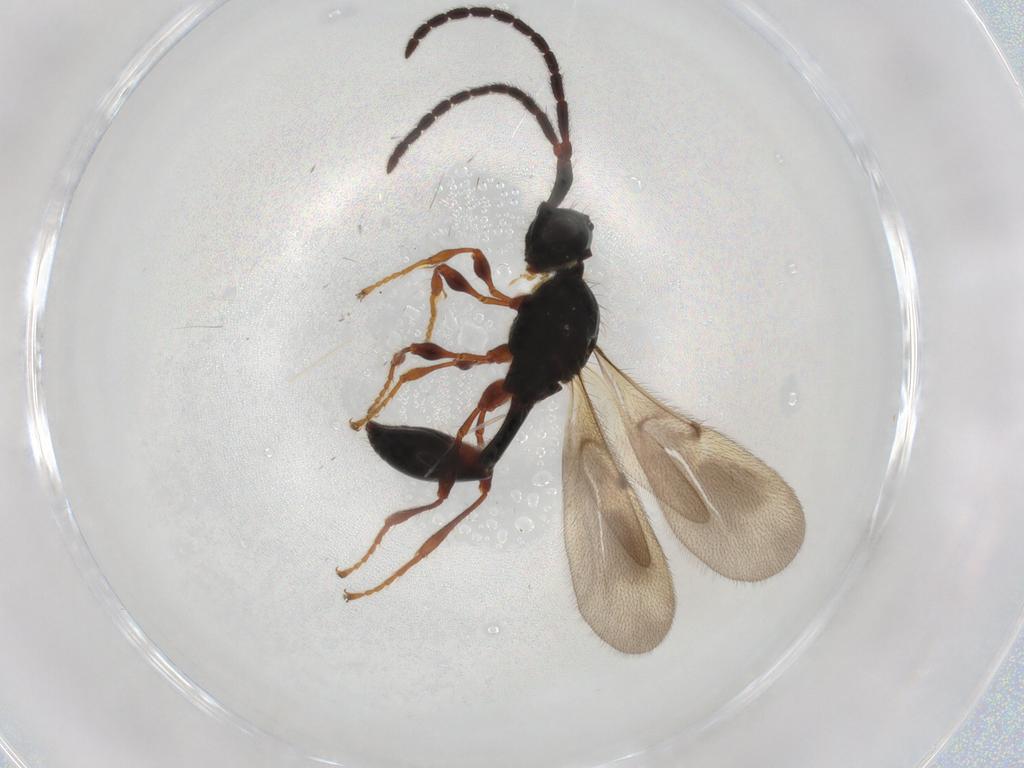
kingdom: Animalia
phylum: Arthropoda
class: Insecta
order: Hymenoptera
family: Diapriidae
